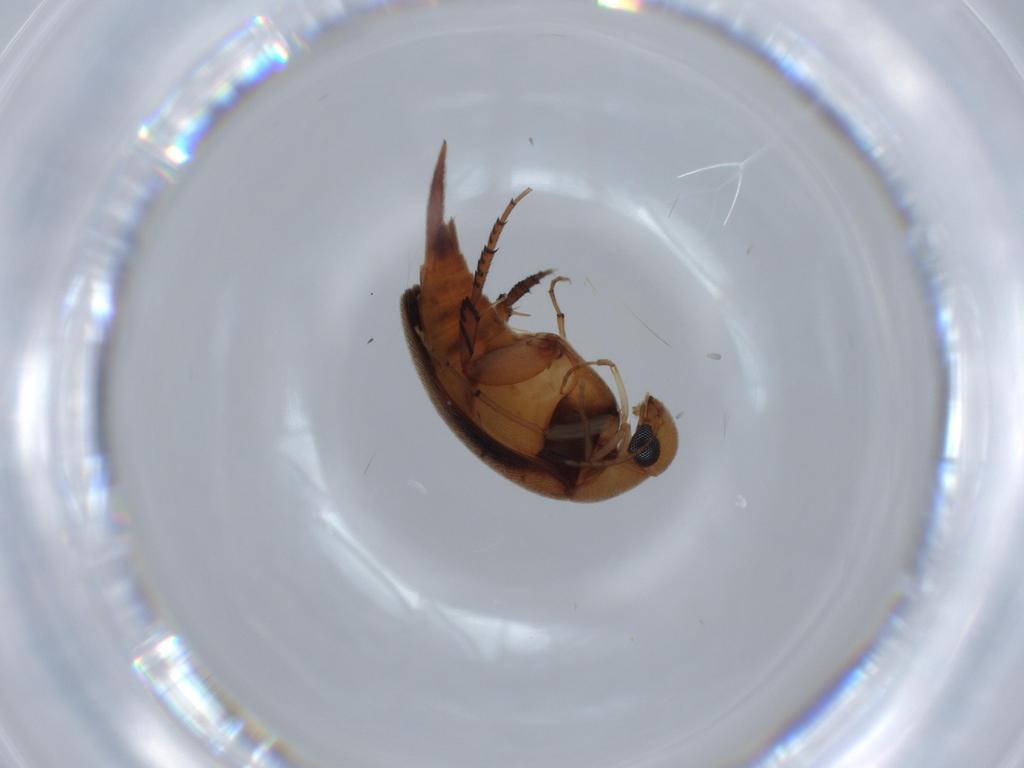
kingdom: Animalia
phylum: Arthropoda
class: Insecta
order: Coleoptera
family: Mordellidae
